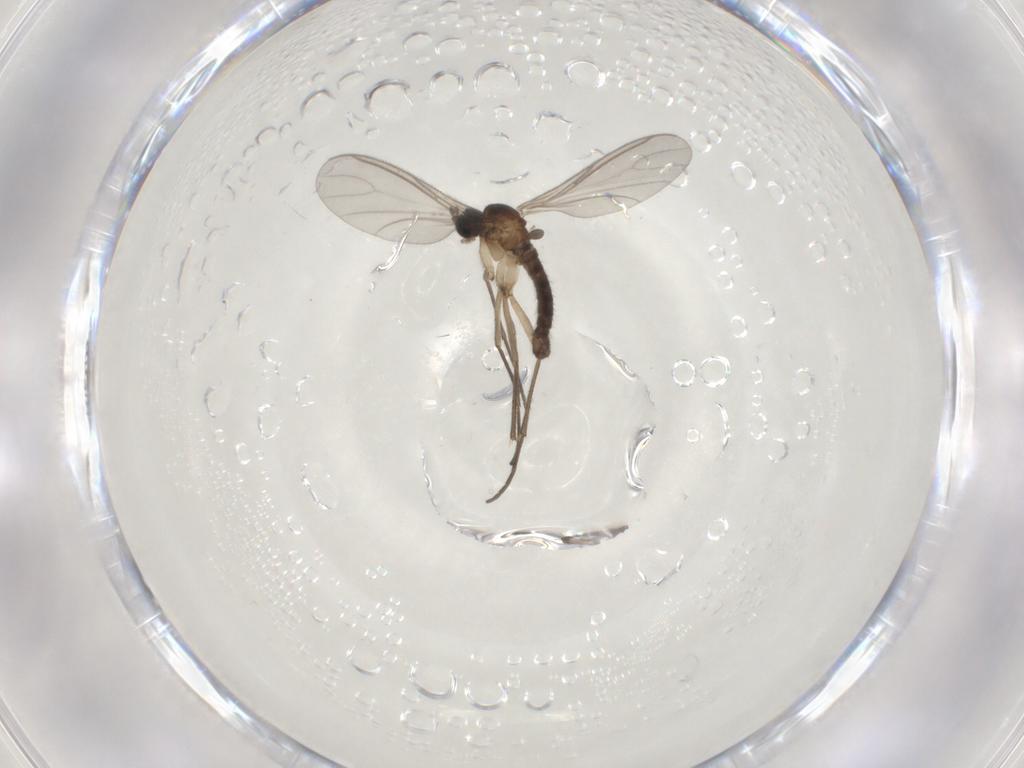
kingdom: Animalia
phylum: Arthropoda
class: Insecta
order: Diptera
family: Sciaridae
